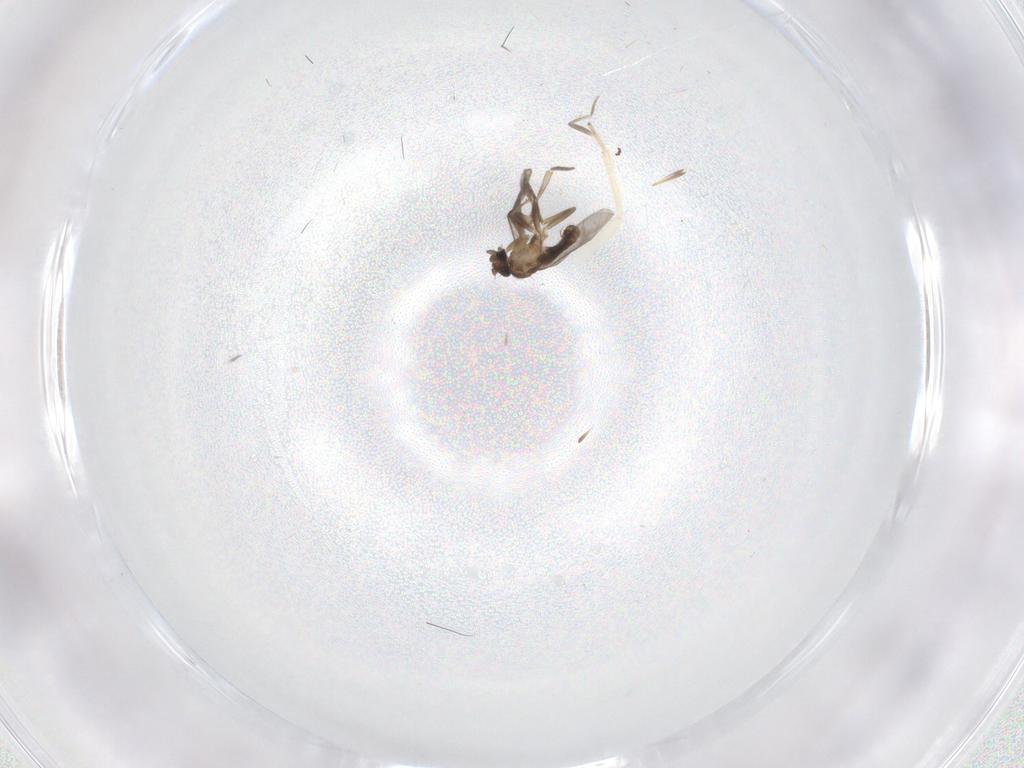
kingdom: Animalia
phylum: Arthropoda
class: Insecta
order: Diptera
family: Cecidomyiidae
